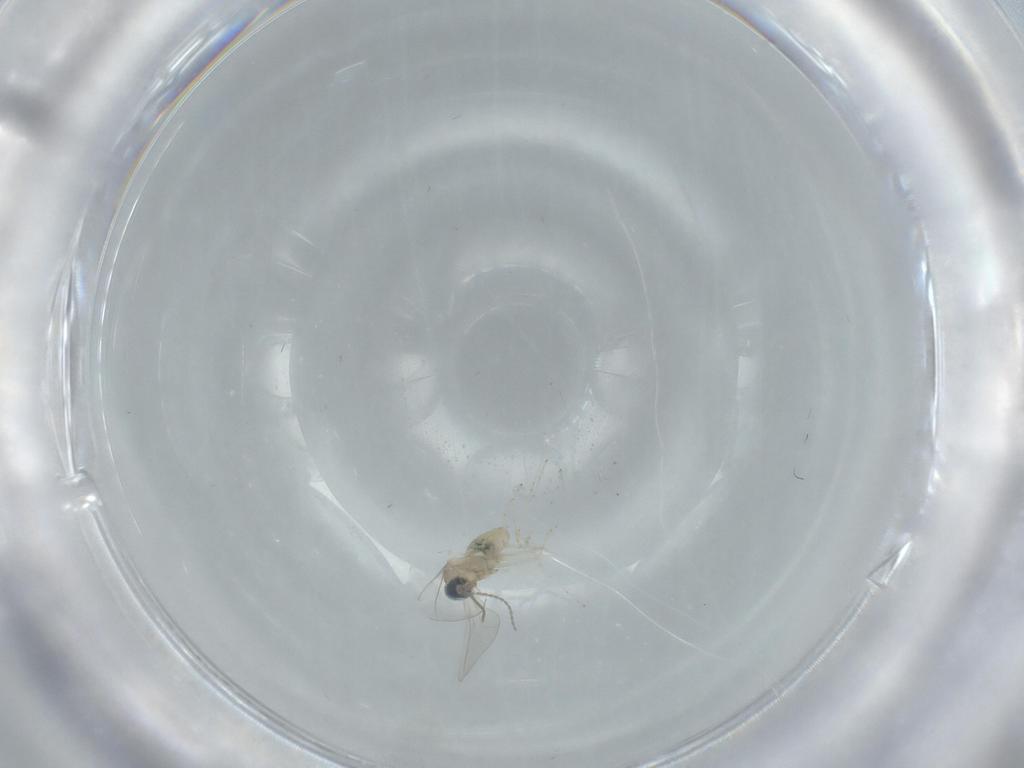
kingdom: Animalia
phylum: Arthropoda
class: Insecta
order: Diptera
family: Cecidomyiidae
